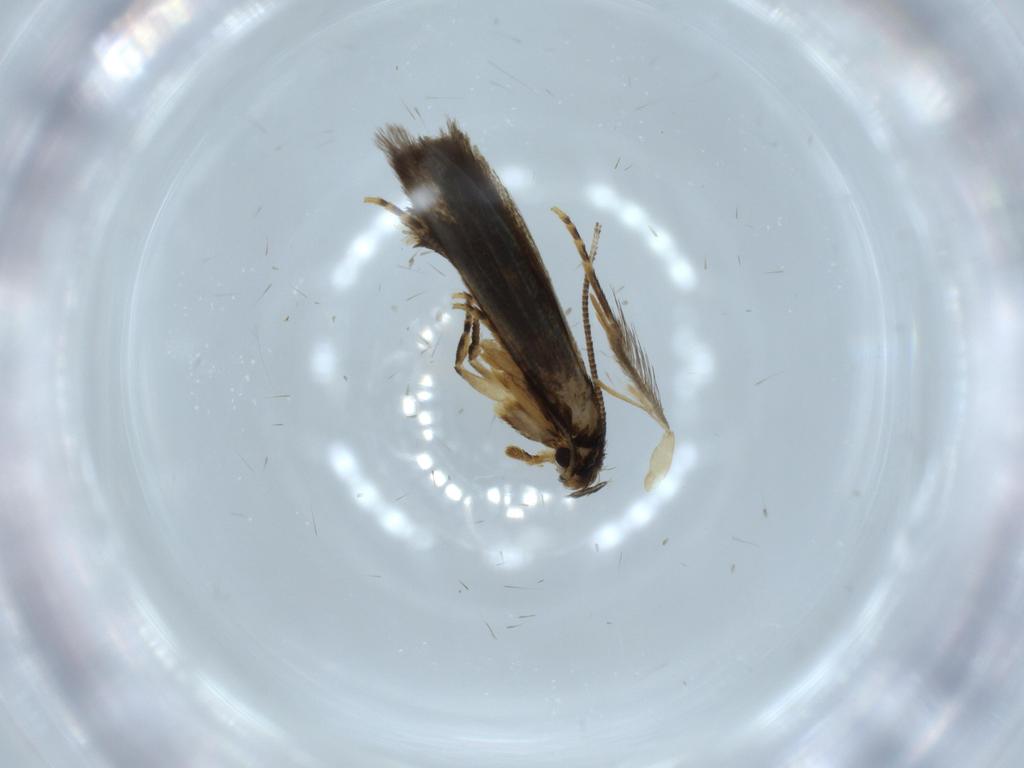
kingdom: Animalia
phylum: Arthropoda
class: Insecta
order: Lepidoptera
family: Tineidae
